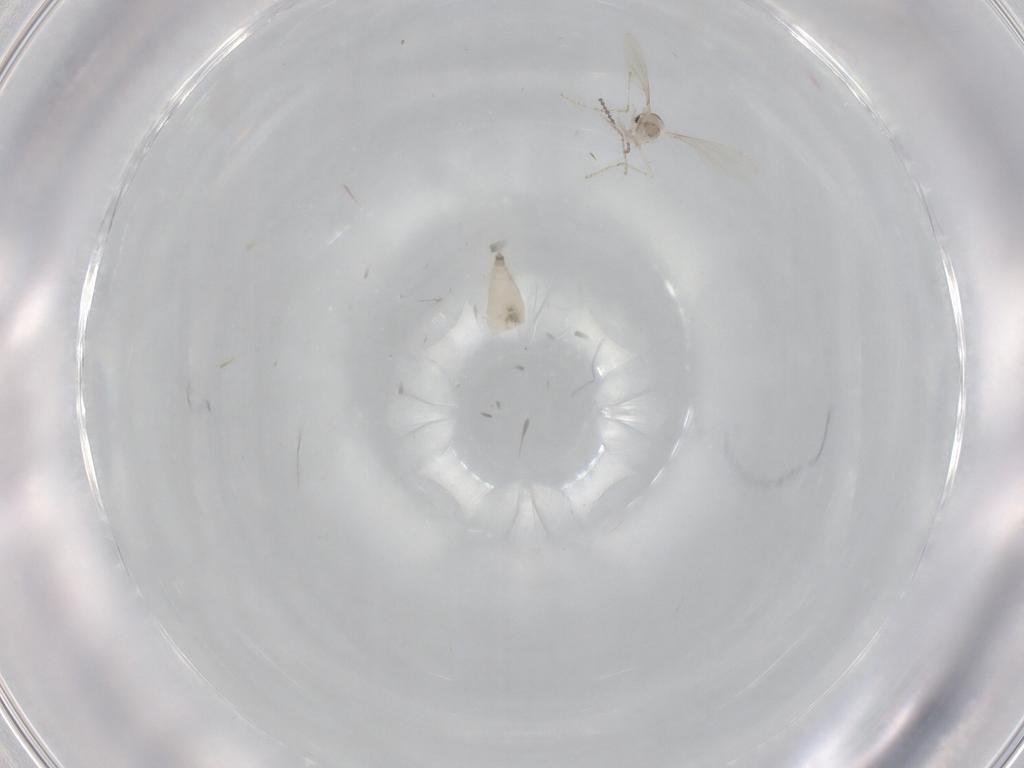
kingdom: Animalia
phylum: Arthropoda
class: Insecta
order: Diptera
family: Cecidomyiidae
